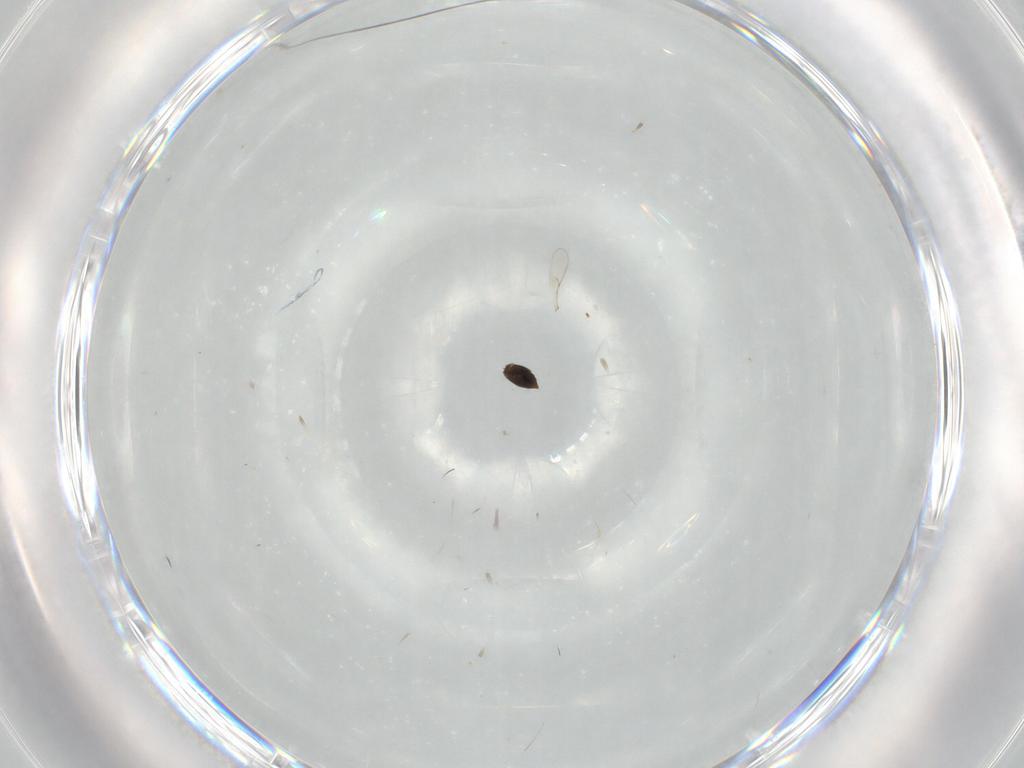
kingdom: Animalia
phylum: Arthropoda
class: Insecta
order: Hymenoptera
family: Scelionidae
